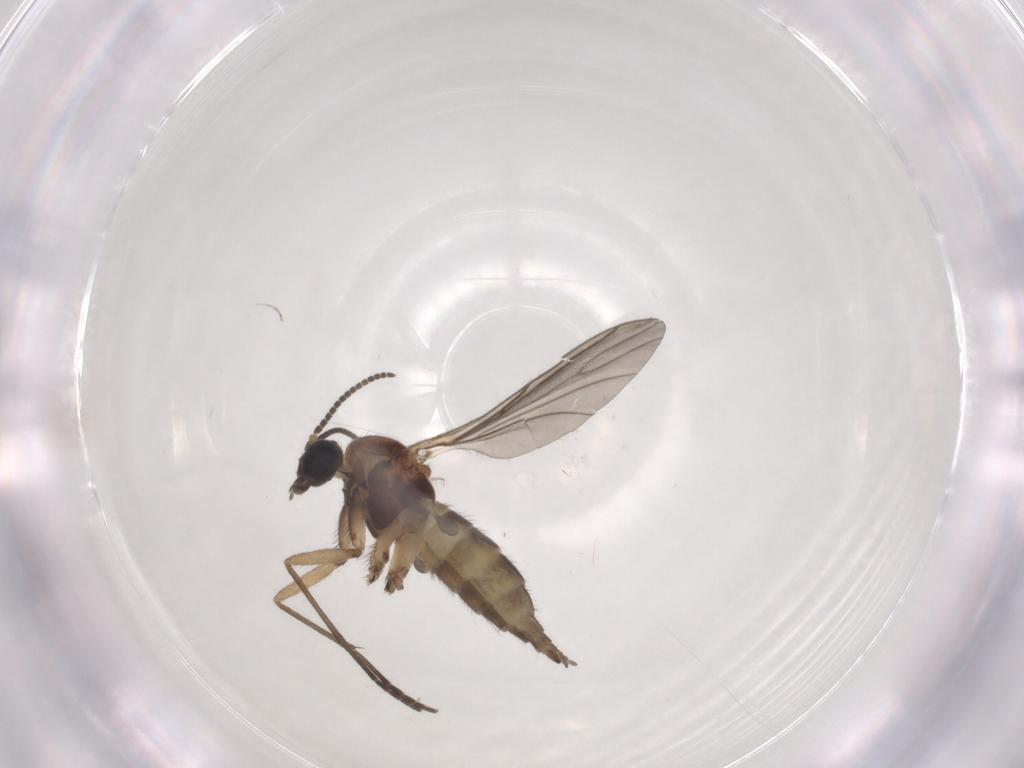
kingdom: Animalia
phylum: Arthropoda
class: Insecta
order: Diptera
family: Sciaridae
